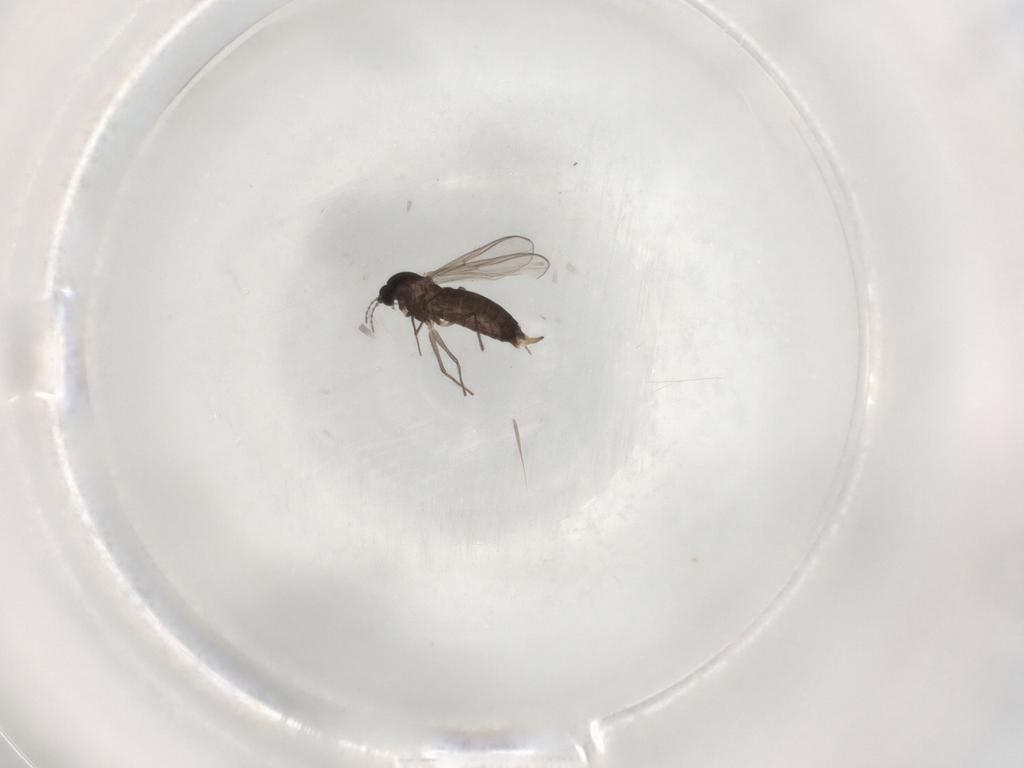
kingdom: Animalia
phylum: Arthropoda
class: Insecta
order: Diptera
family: Chironomidae
